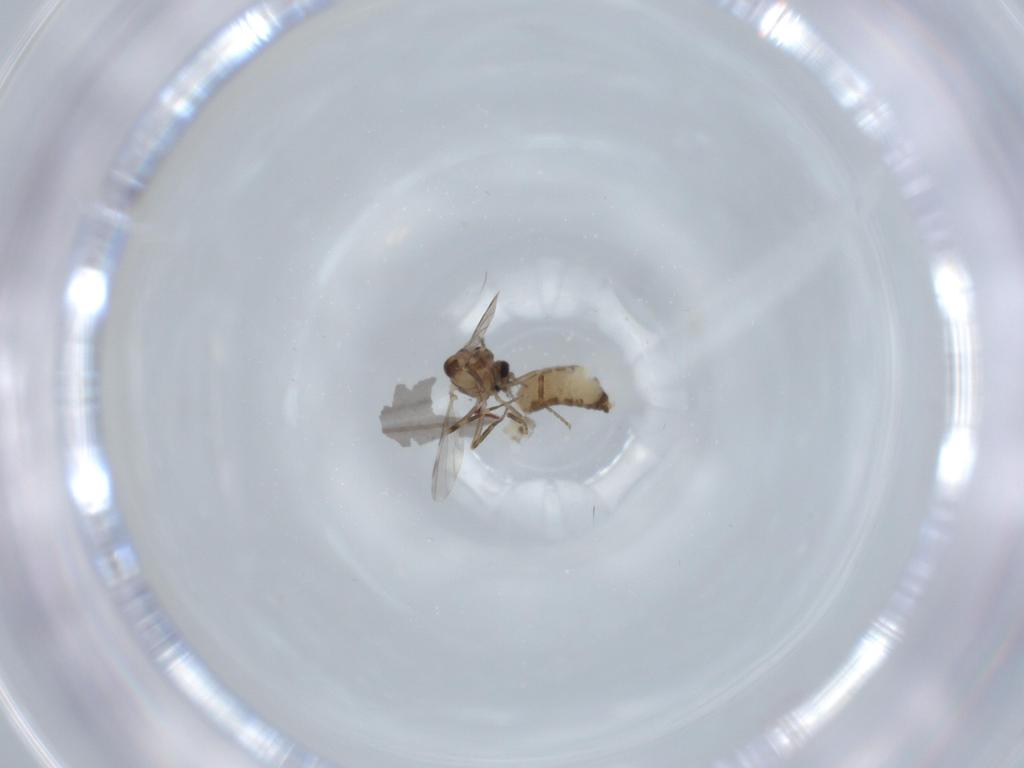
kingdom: Animalia
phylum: Arthropoda
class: Insecta
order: Diptera
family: Ceratopogonidae
